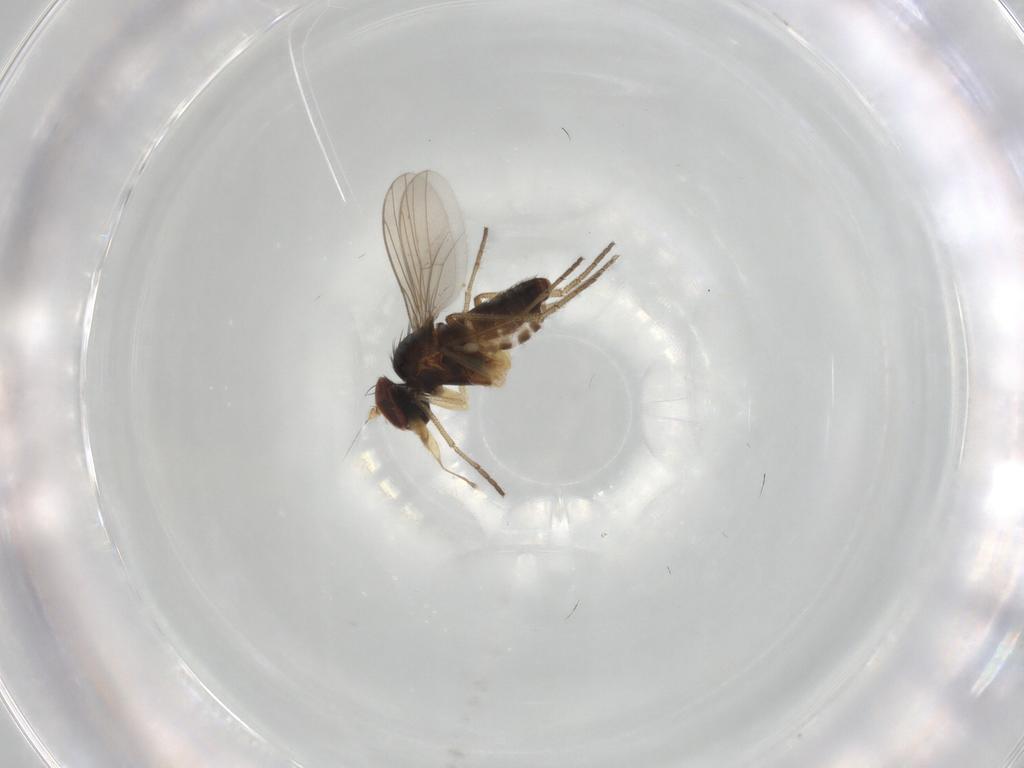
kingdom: Animalia
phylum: Arthropoda
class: Insecta
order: Diptera
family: Dolichopodidae
